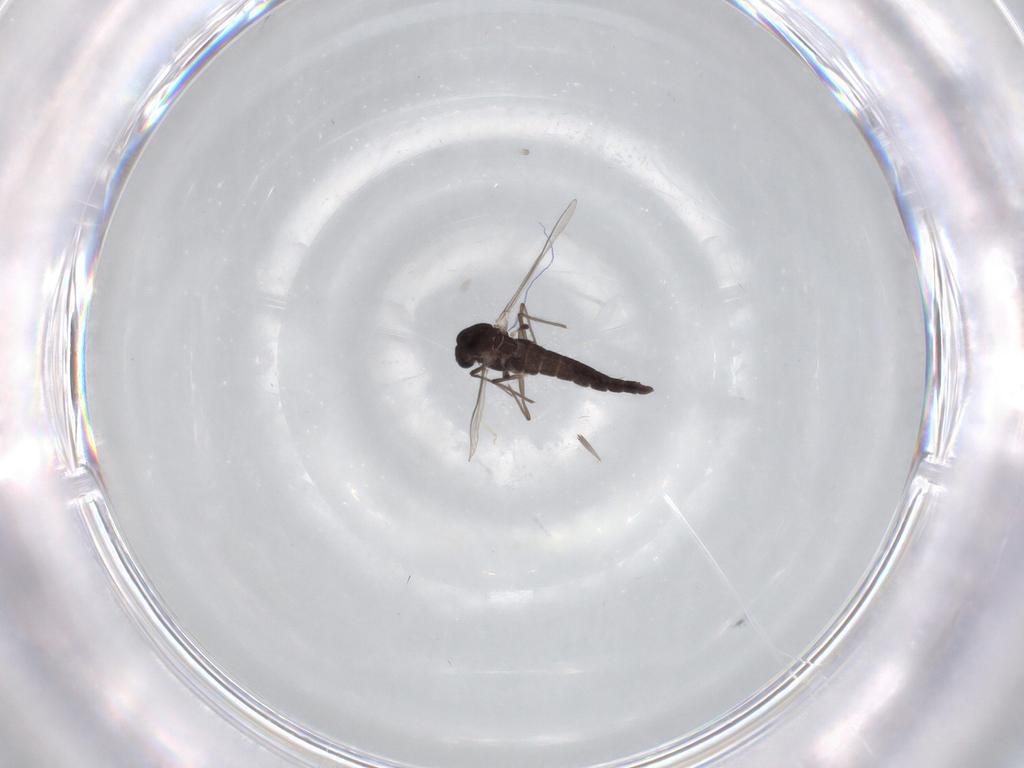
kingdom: Animalia
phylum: Arthropoda
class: Insecta
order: Diptera
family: Chironomidae
